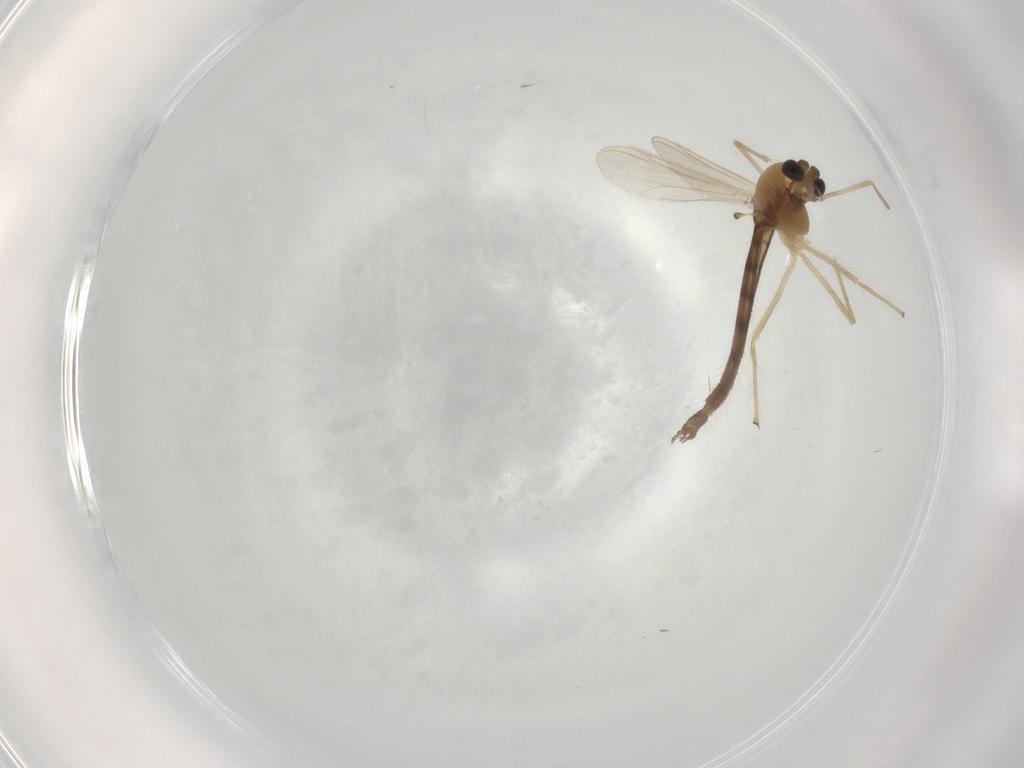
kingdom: Animalia
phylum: Arthropoda
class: Insecta
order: Diptera
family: Chironomidae
